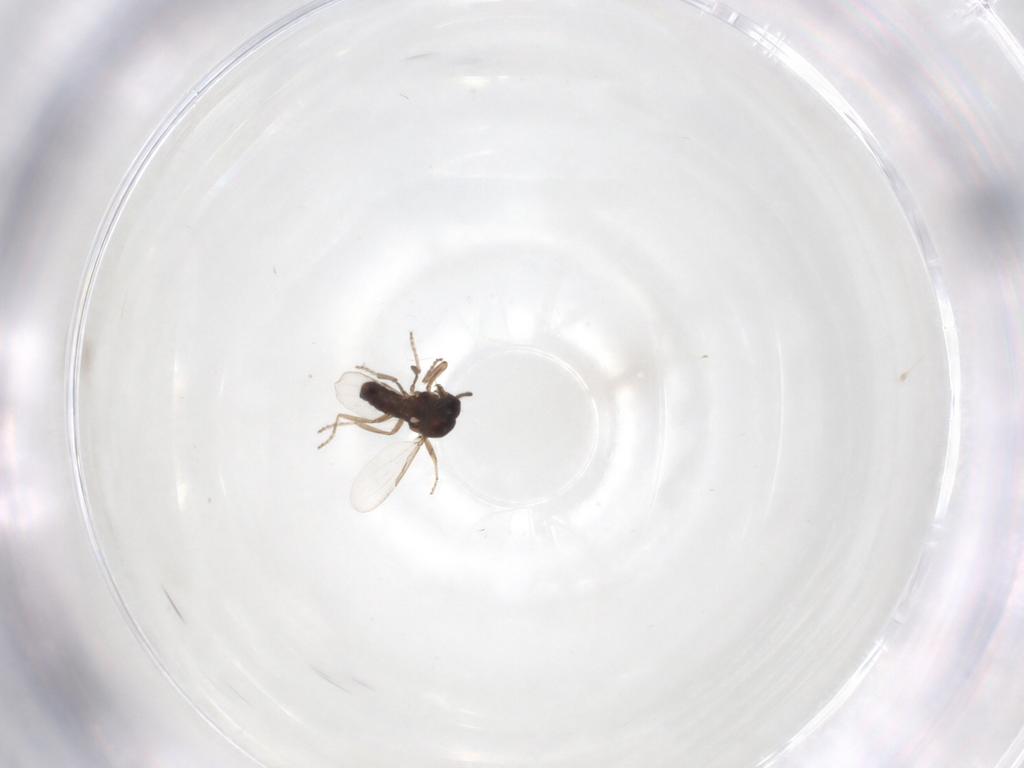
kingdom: Animalia
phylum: Arthropoda
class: Insecta
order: Diptera
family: Ceratopogonidae
